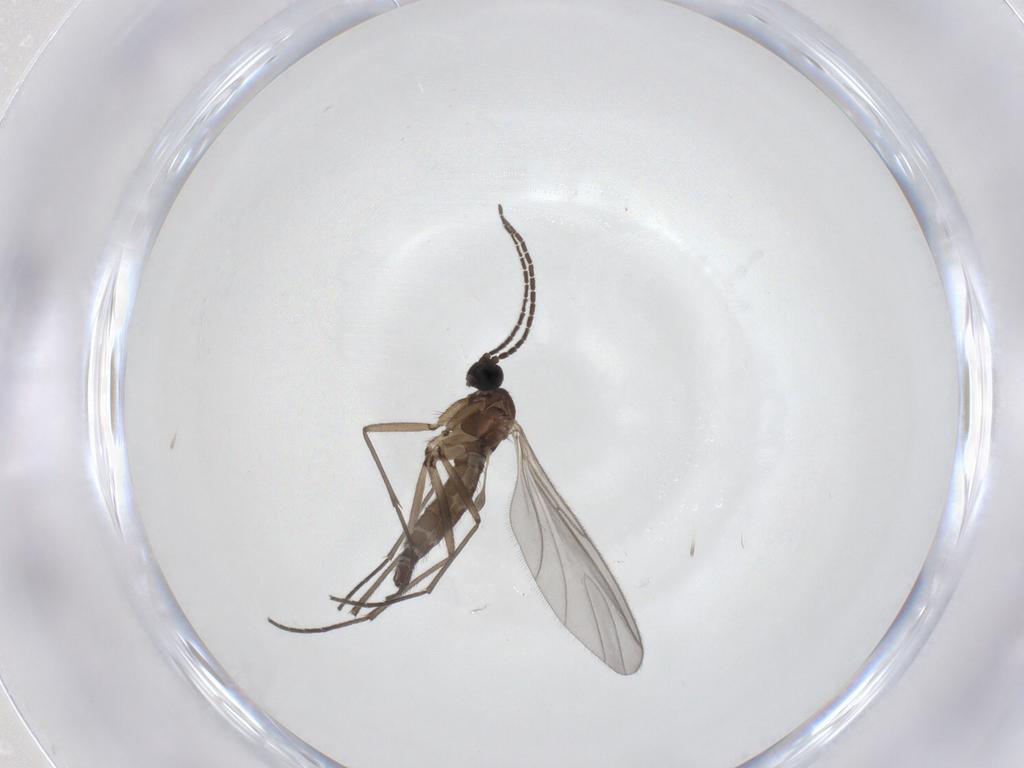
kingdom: Animalia
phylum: Arthropoda
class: Insecta
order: Diptera
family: Sciaridae
